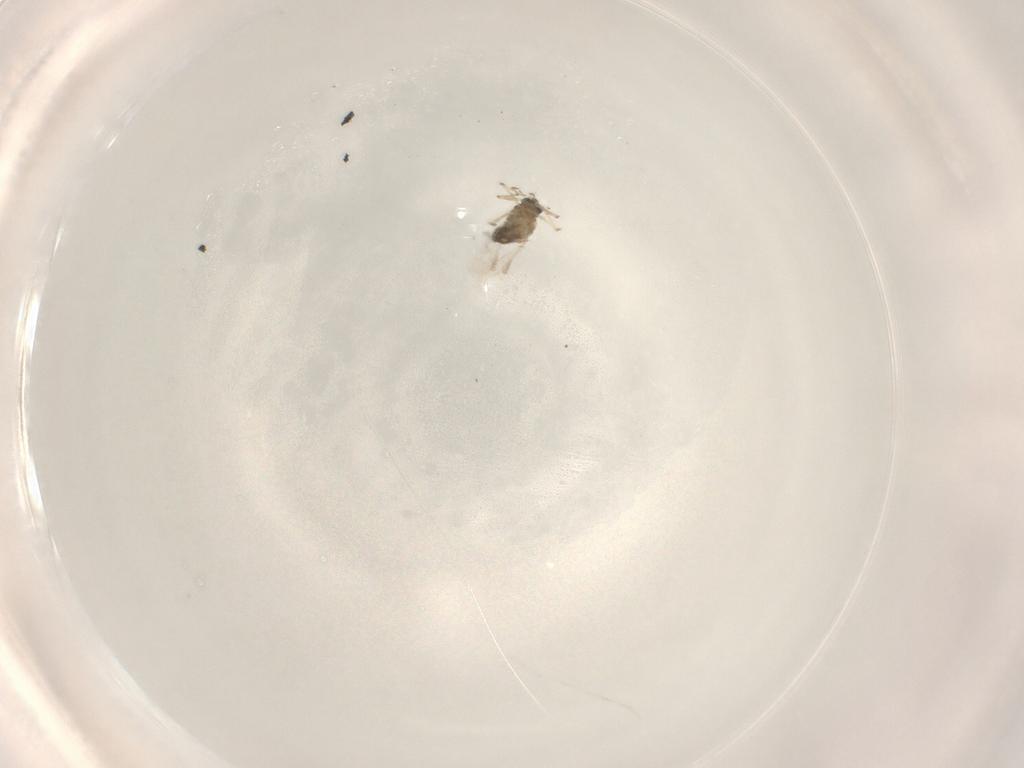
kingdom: Animalia
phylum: Arthropoda
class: Insecta
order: Diptera
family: Chironomidae
